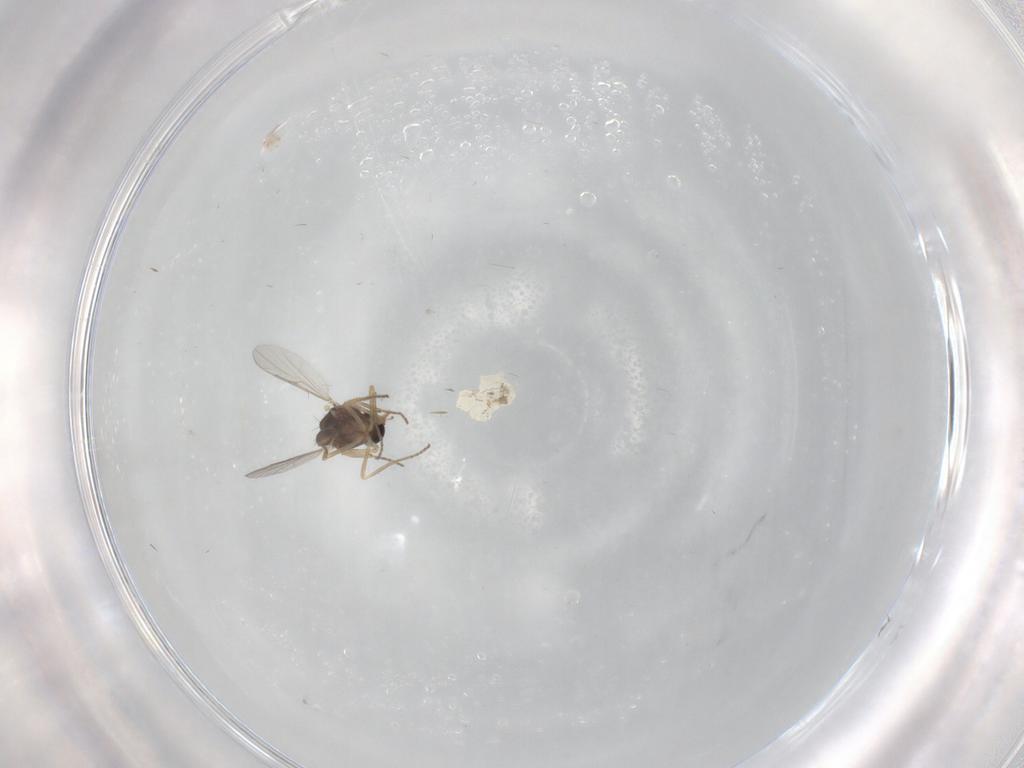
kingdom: Animalia
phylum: Arthropoda
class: Insecta
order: Diptera
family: Ceratopogonidae
